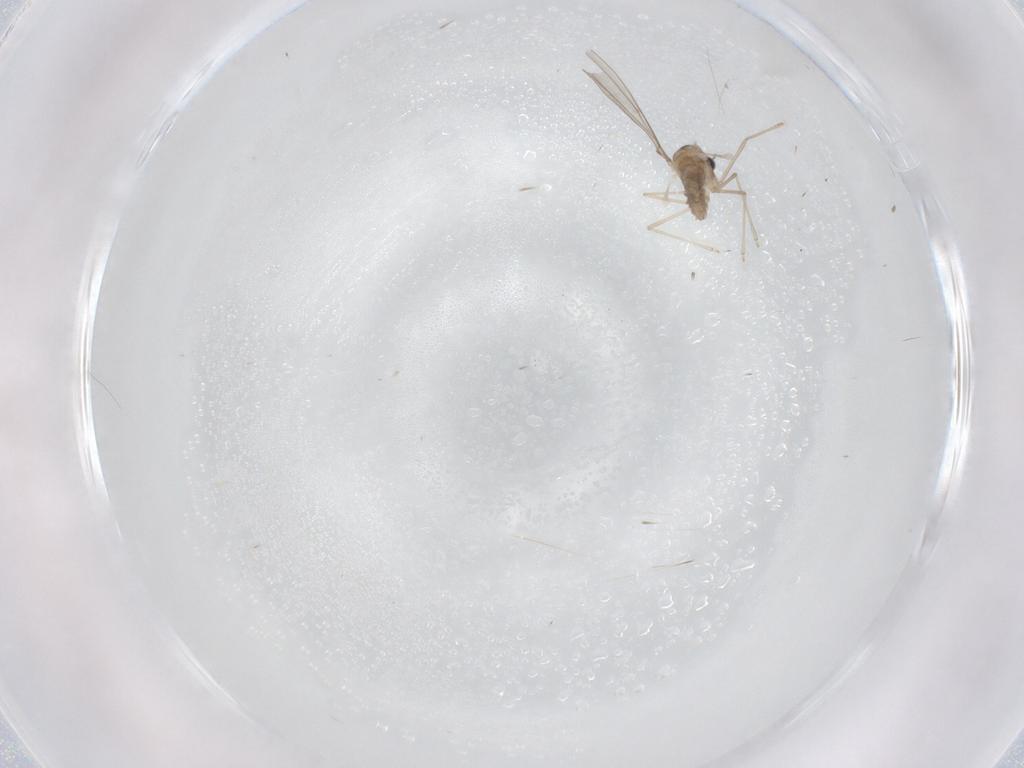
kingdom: Animalia
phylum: Arthropoda
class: Insecta
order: Diptera
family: Cecidomyiidae
